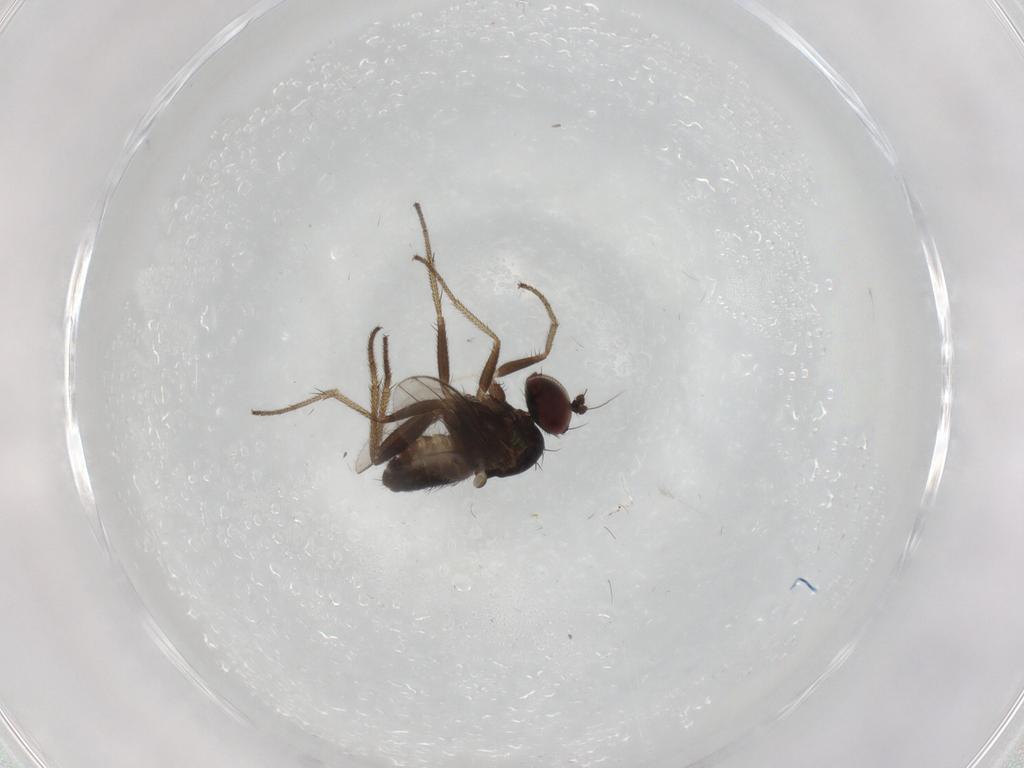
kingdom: Animalia
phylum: Arthropoda
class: Insecta
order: Diptera
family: Dolichopodidae
